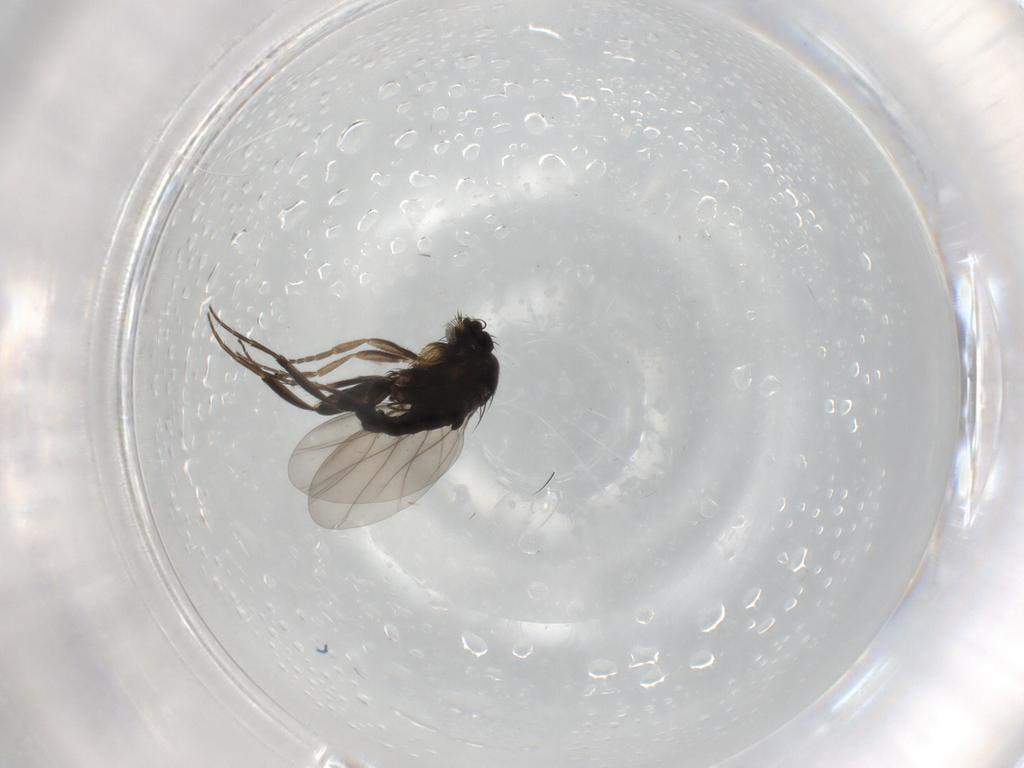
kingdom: Animalia
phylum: Arthropoda
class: Insecta
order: Diptera
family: Phoridae
